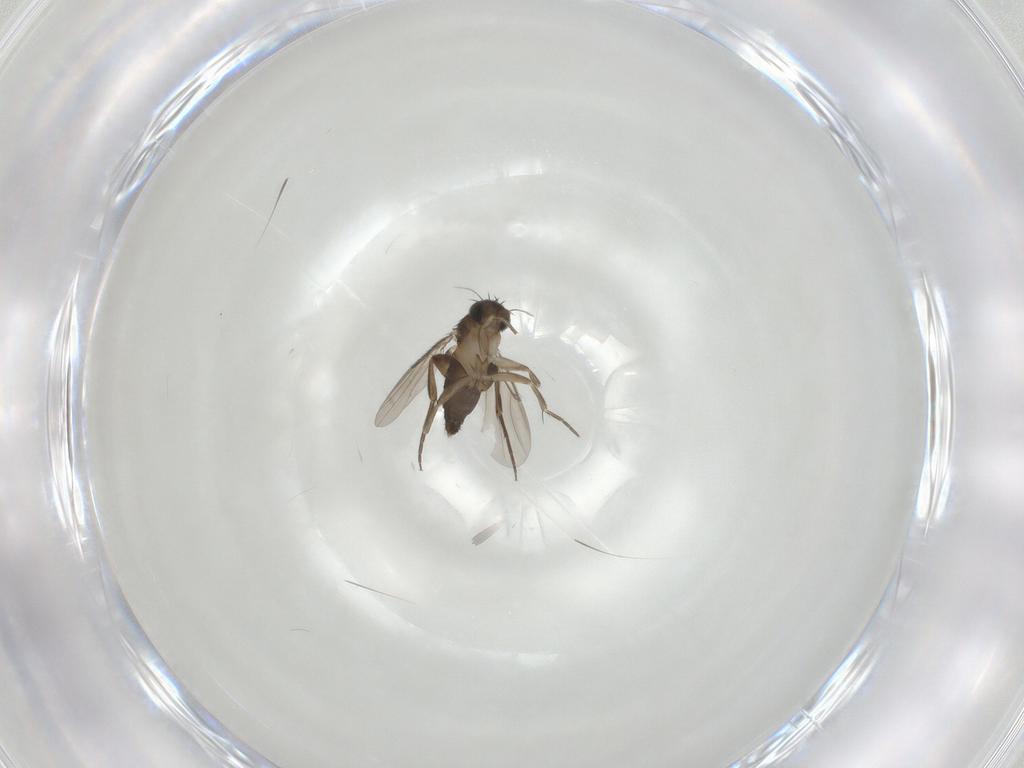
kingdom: Animalia
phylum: Arthropoda
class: Insecta
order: Diptera
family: Phoridae
